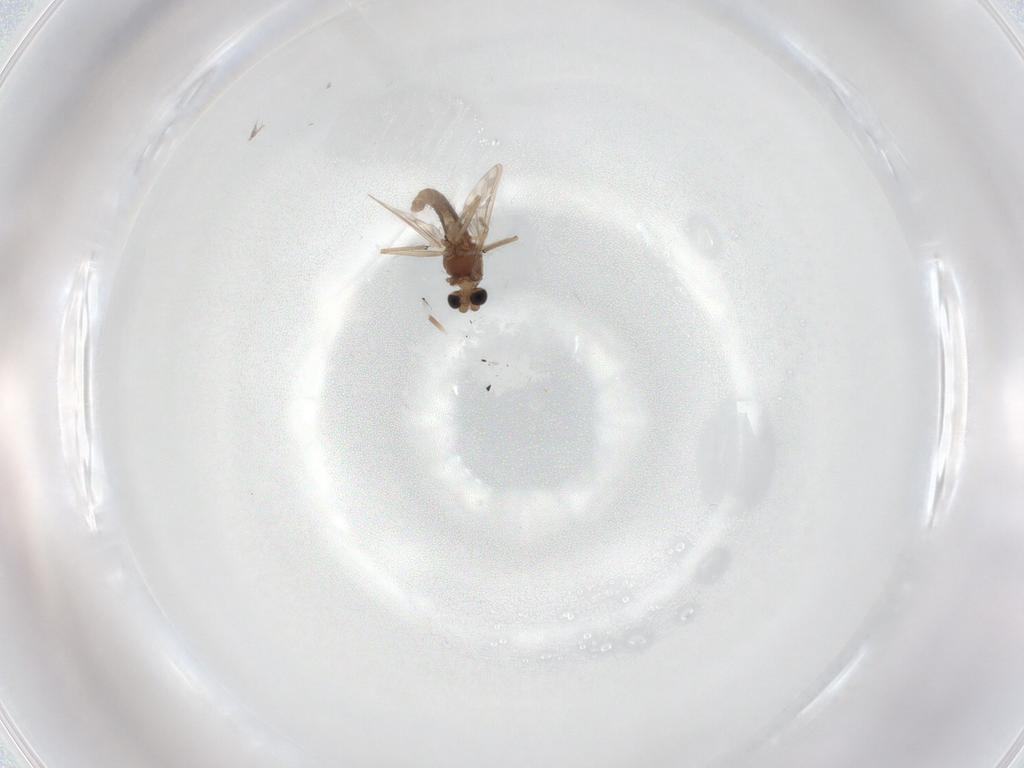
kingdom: Animalia
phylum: Arthropoda
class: Insecta
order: Diptera
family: Chironomidae
